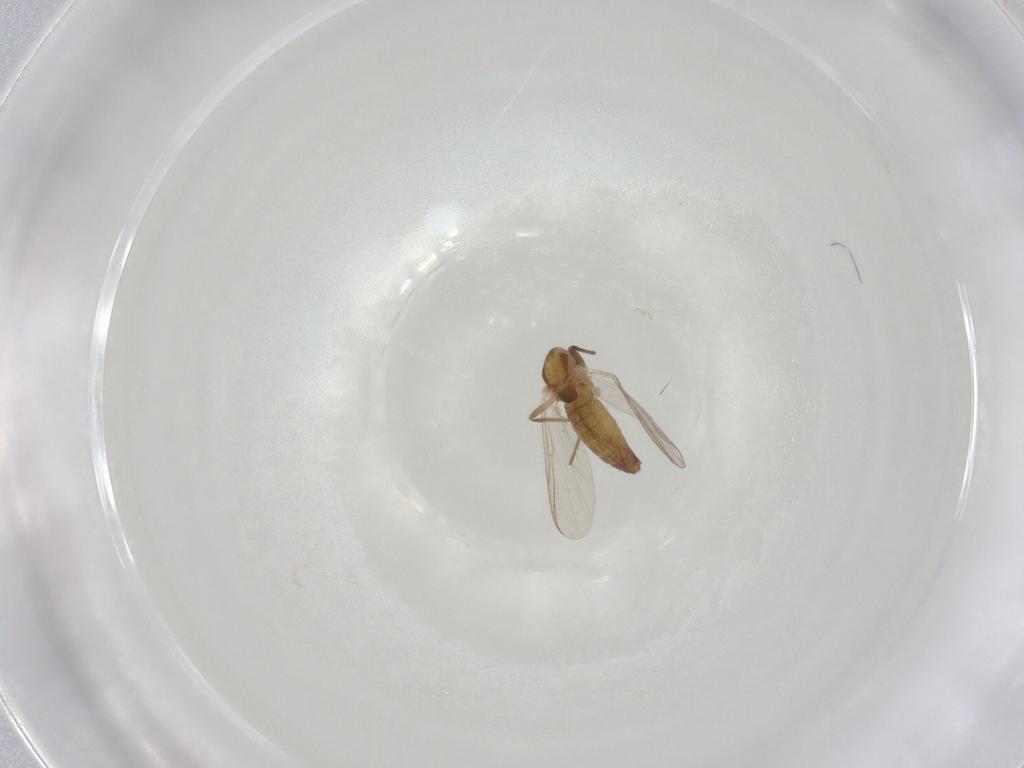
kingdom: Animalia
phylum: Arthropoda
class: Insecta
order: Diptera
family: Chironomidae
